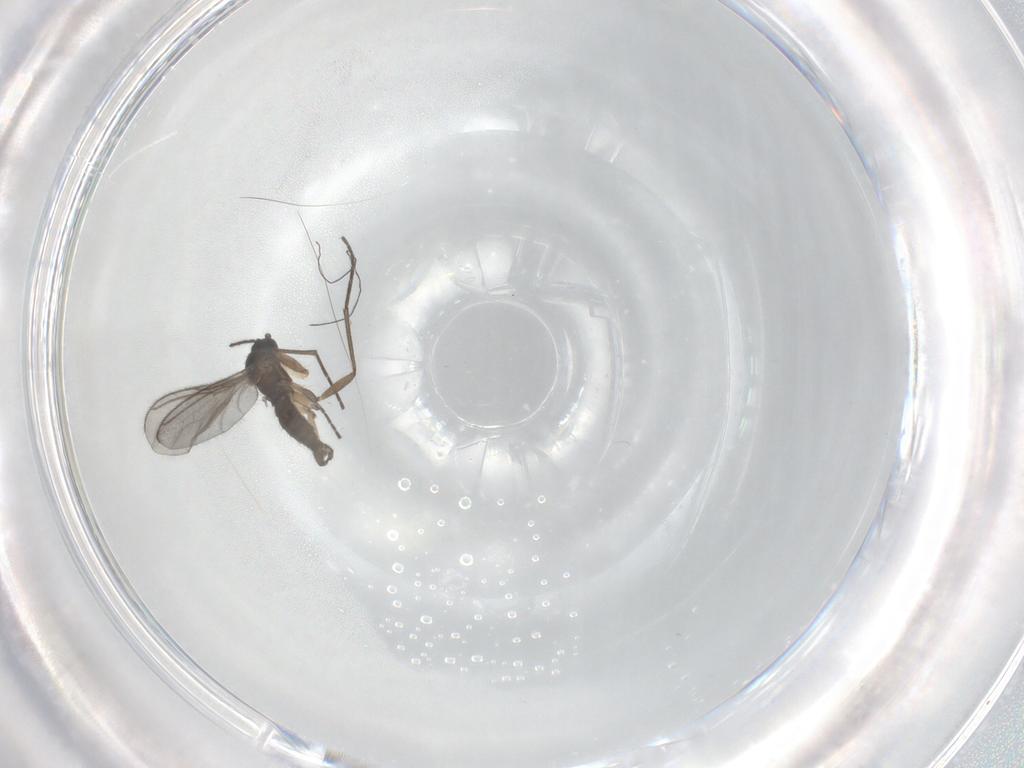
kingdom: Animalia
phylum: Arthropoda
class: Insecta
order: Diptera
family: Sciaridae
